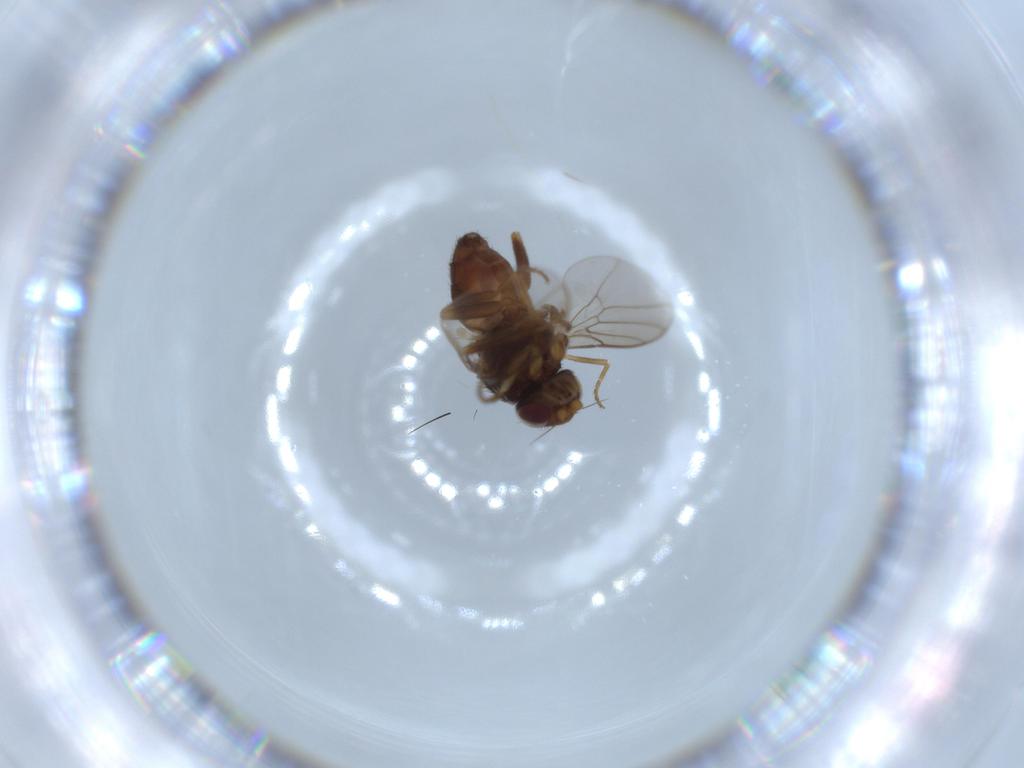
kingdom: Animalia
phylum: Arthropoda
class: Insecta
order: Diptera
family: Chloropidae
